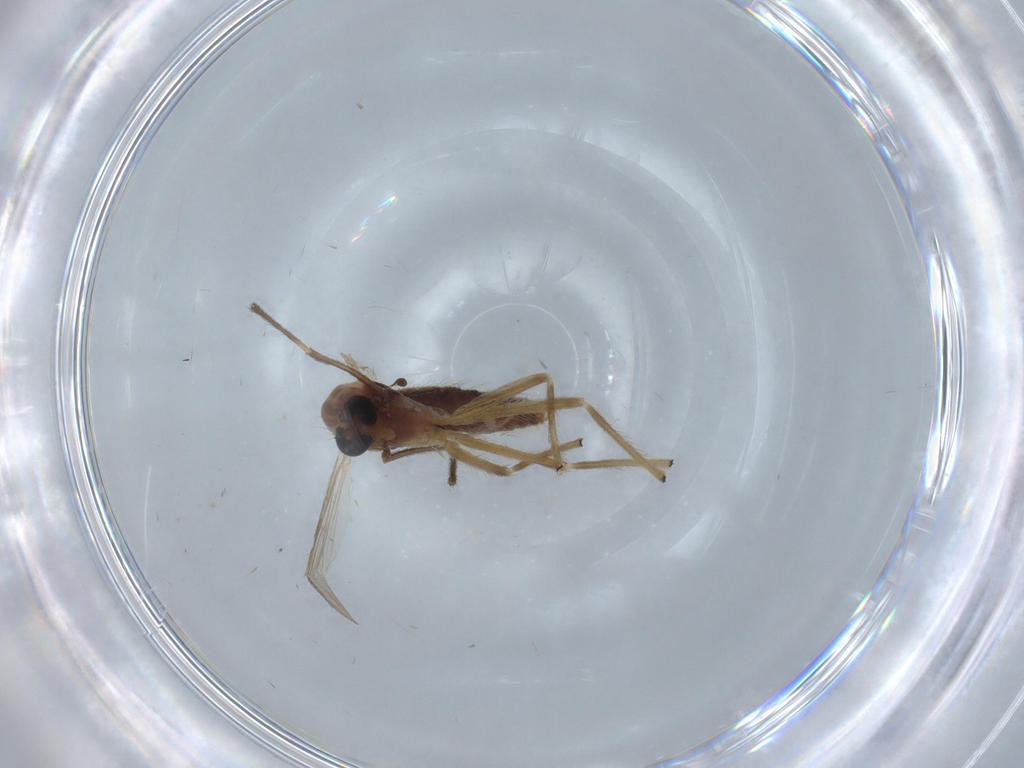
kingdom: Animalia
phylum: Arthropoda
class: Insecta
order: Diptera
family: Chironomidae
